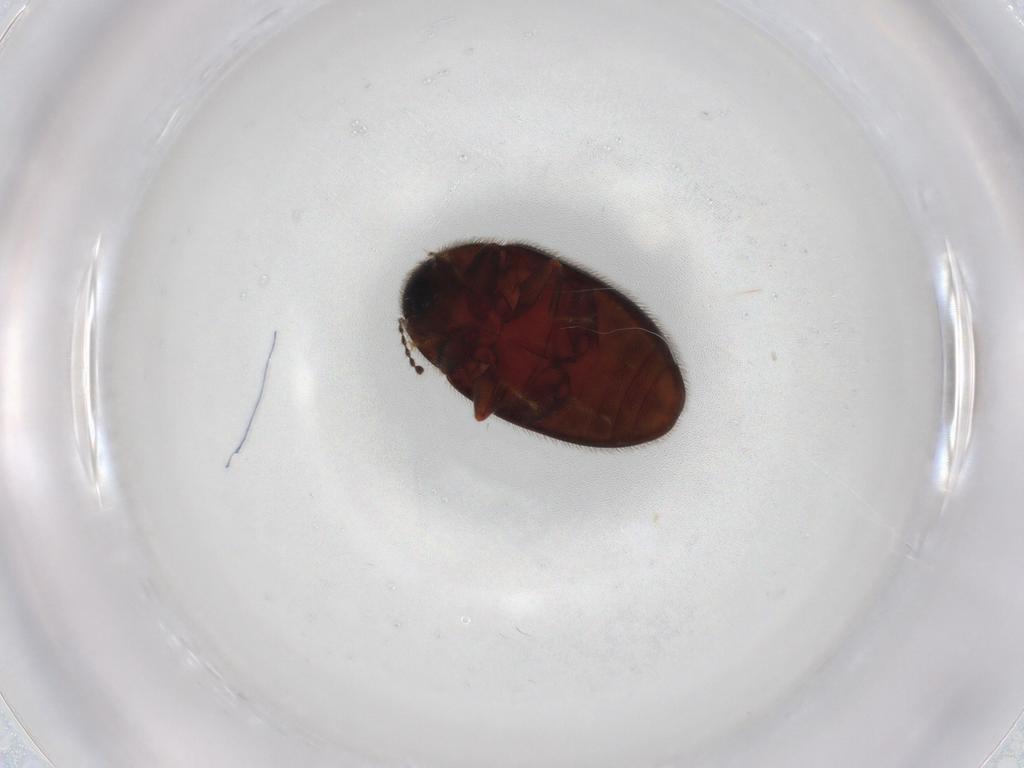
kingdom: Animalia
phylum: Arthropoda
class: Insecta
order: Coleoptera
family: Limnichidae
